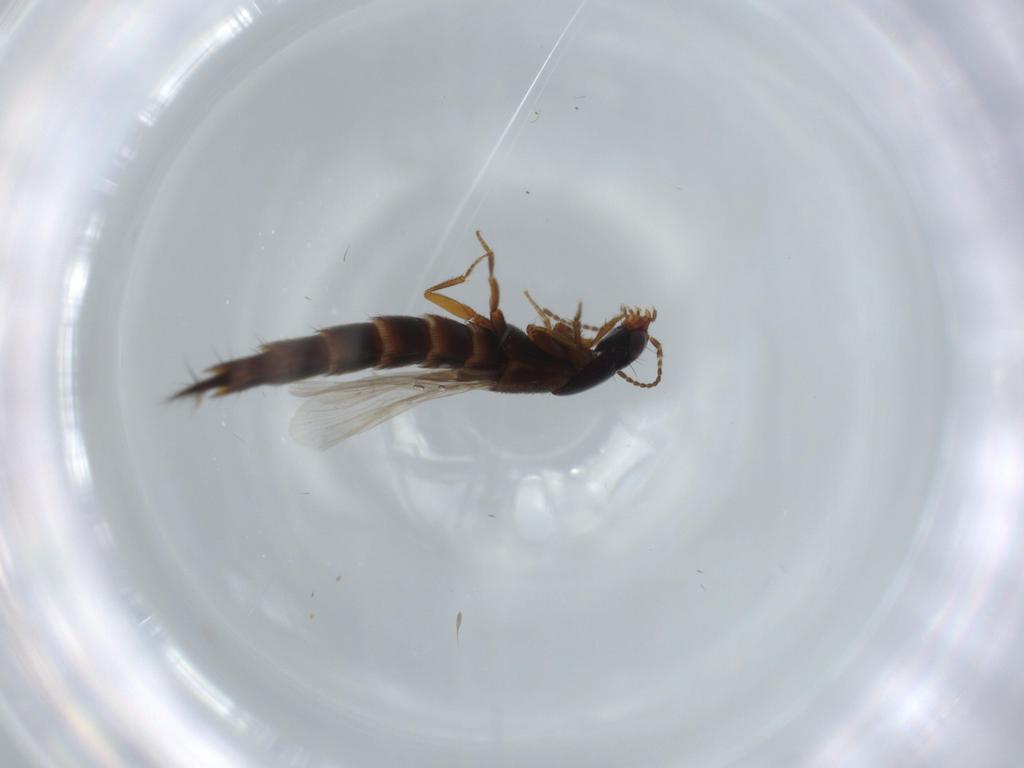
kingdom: Animalia
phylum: Arthropoda
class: Insecta
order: Coleoptera
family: Staphylinidae
